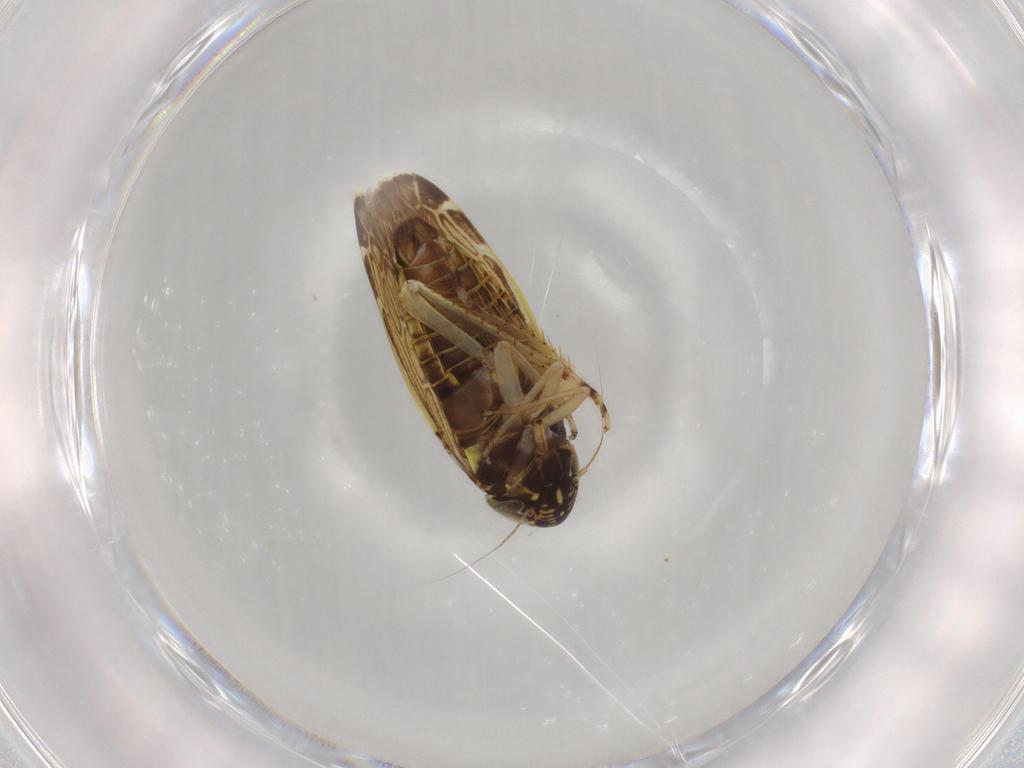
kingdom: Animalia
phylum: Arthropoda
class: Insecta
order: Hemiptera
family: Cicadellidae
